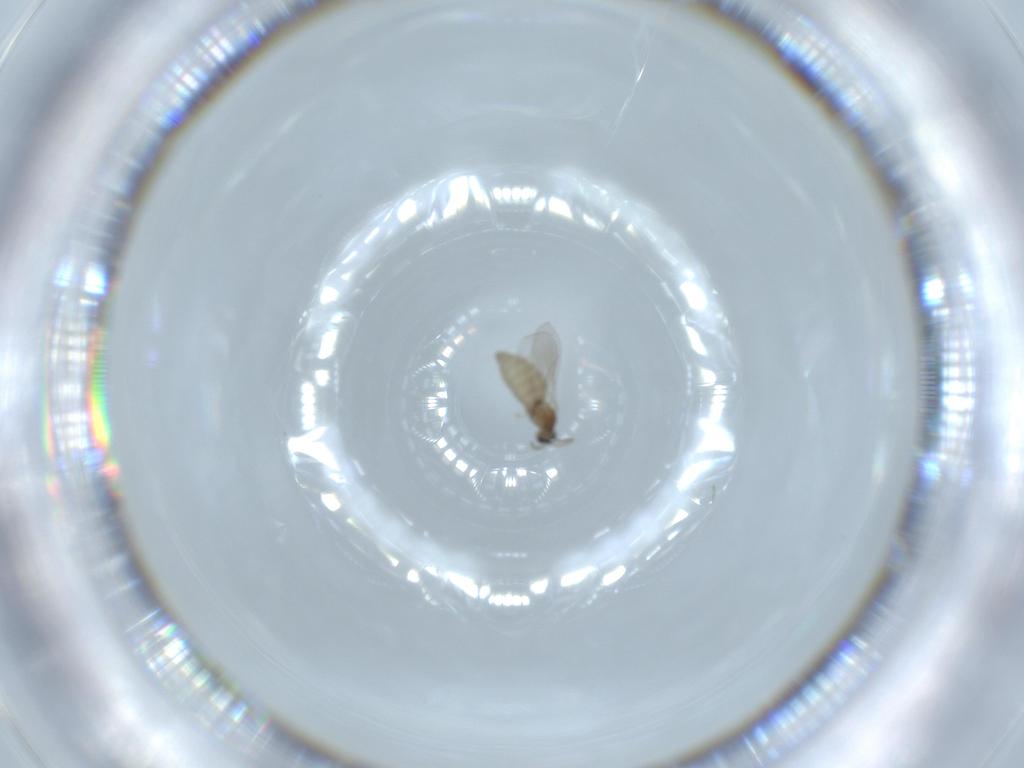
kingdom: Animalia
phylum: Arthropoda
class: Insecta
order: Diptera
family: Cecidomyiidae
